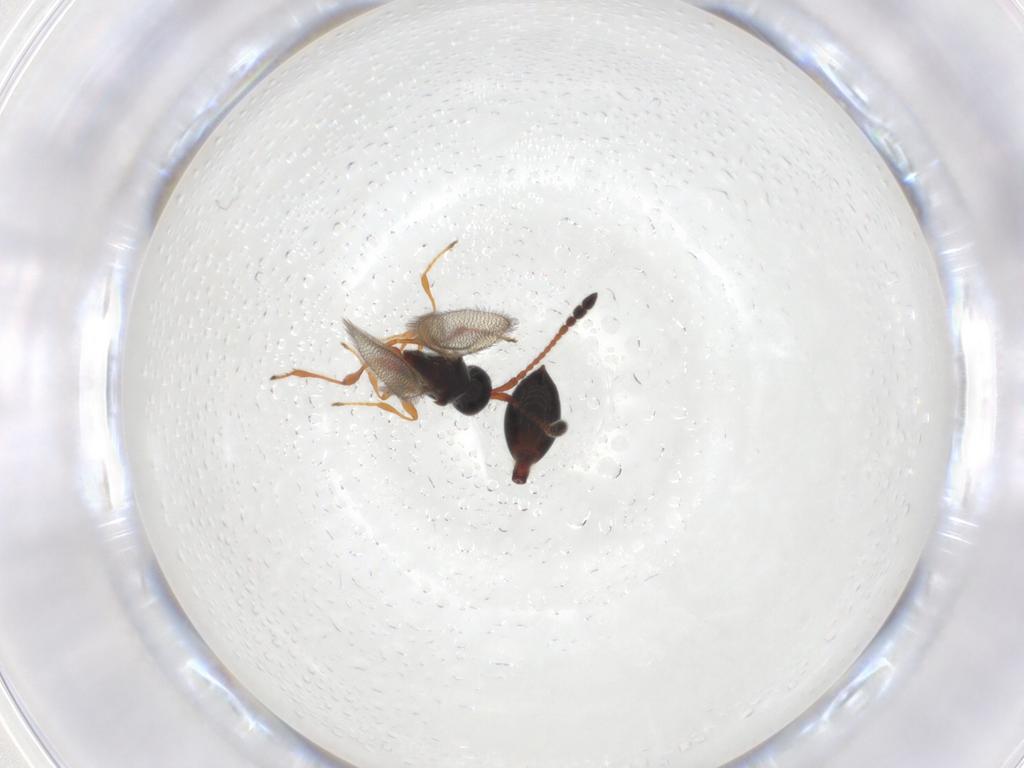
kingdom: Animalia
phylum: Arthropoda
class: Insecta
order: Hymenoptera
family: Diapriidae
